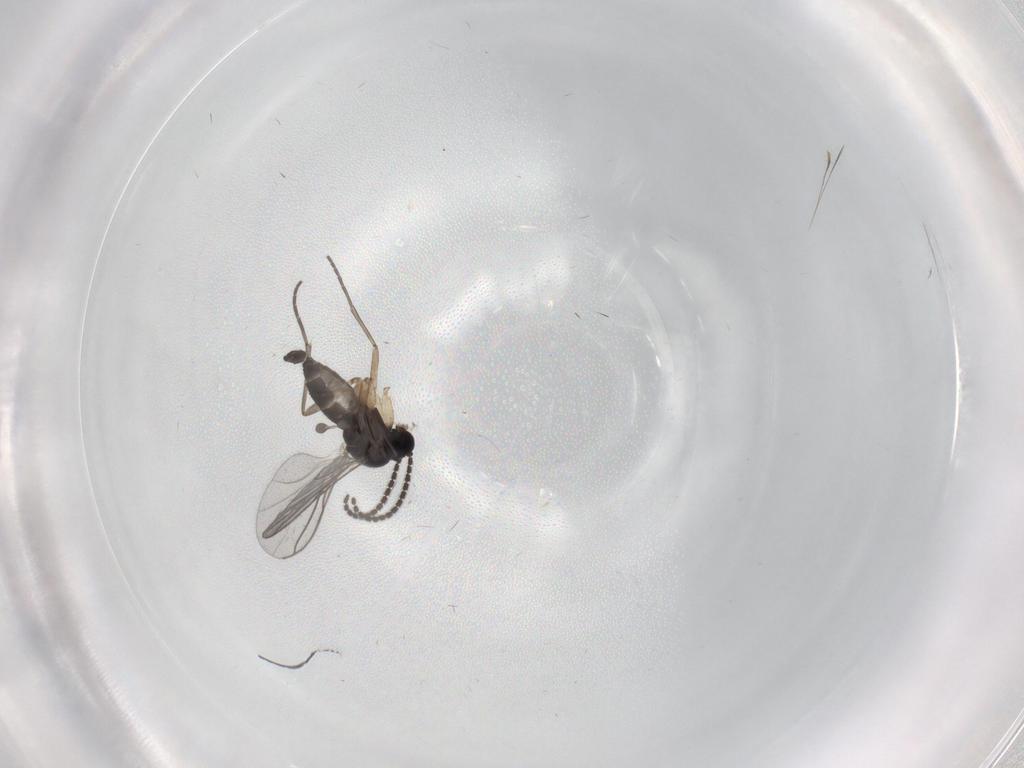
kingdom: Animalia
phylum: Arthropoda
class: Insecta
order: Diptera
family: Sciaridae
